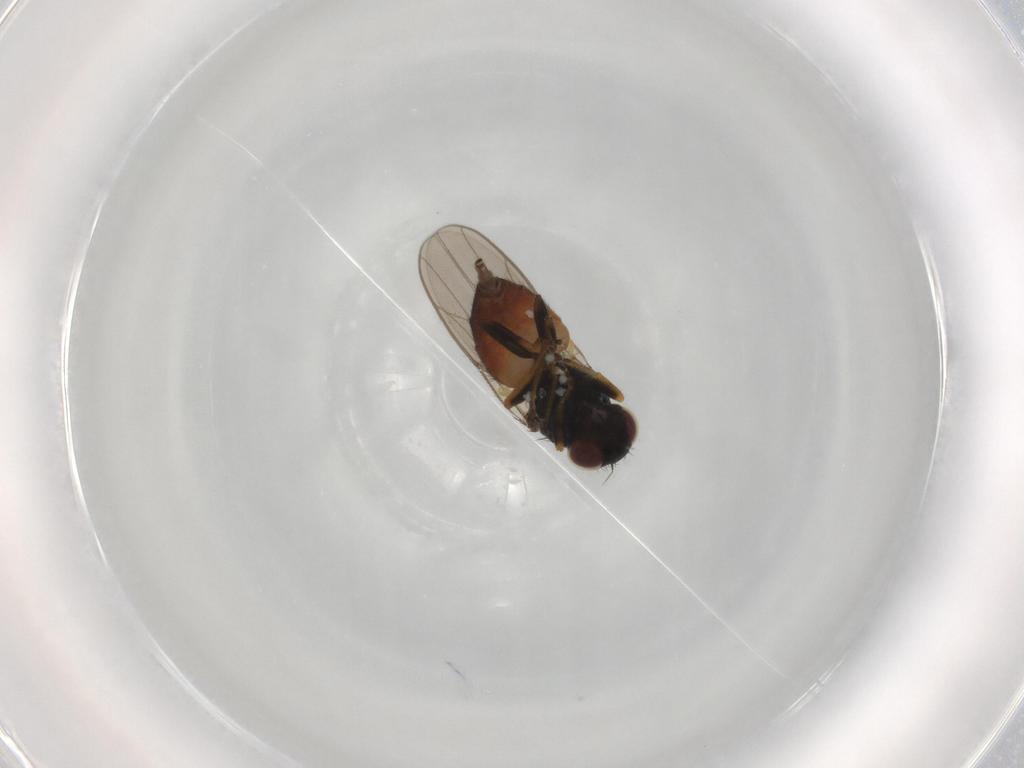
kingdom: Animalia
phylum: Arthropoda
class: Insecta
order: Diptera
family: Chloropidae
